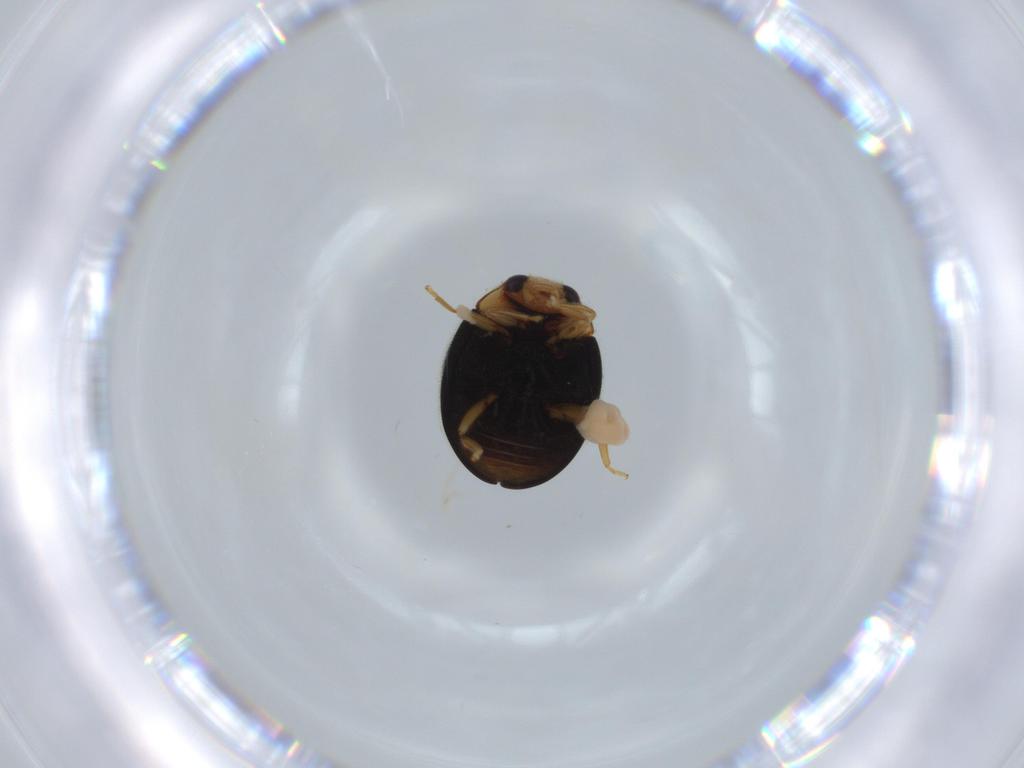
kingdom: Animalia
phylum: Arthropoda
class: Insecta
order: Coleoptera
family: Coccinellidae
